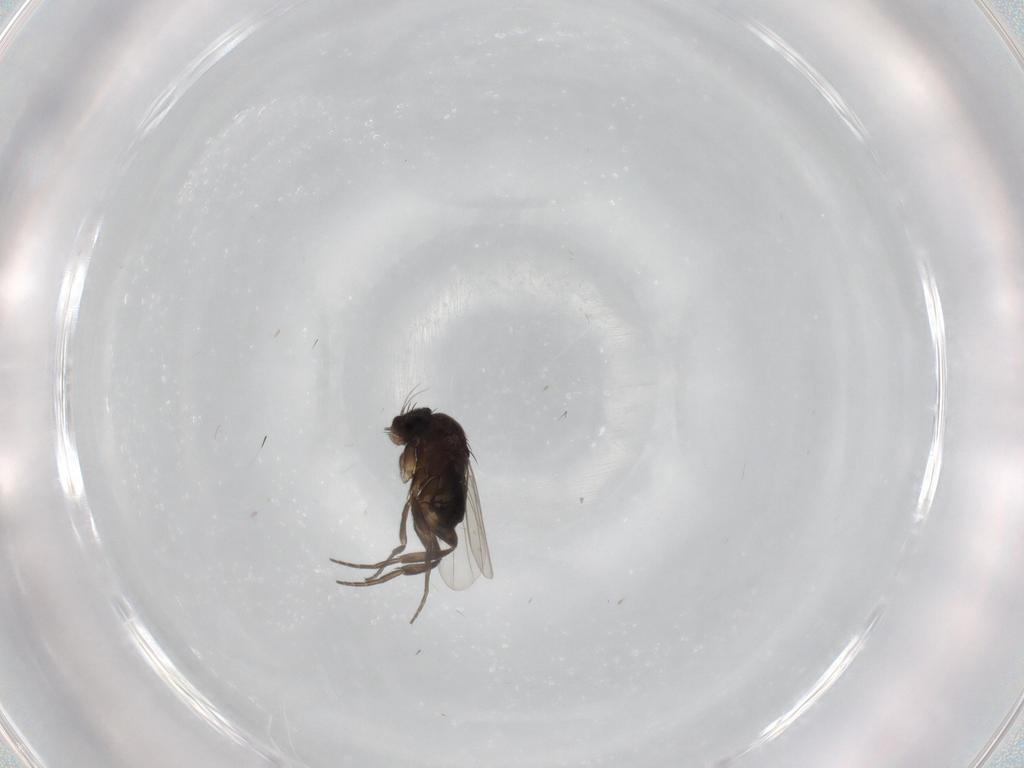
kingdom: Animalia
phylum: Arthropoda
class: Insecta
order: Diptera
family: Phoridae
